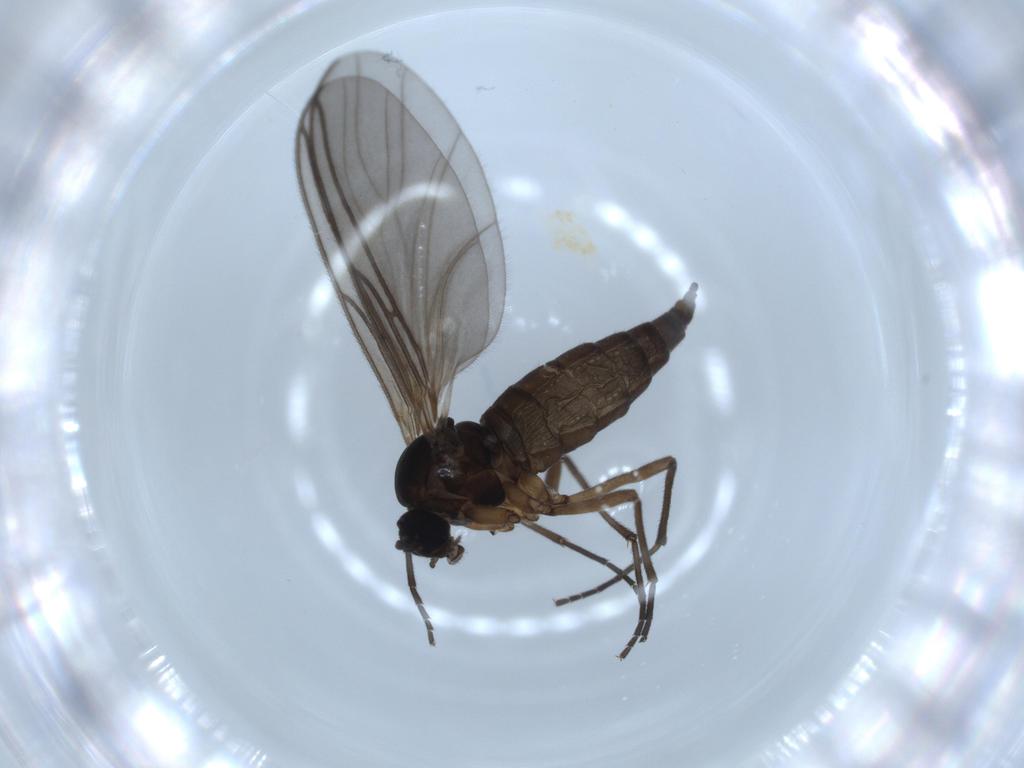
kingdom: Animalia
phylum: Arthropoda
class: Insecta
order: Diptera
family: Sciaridae
